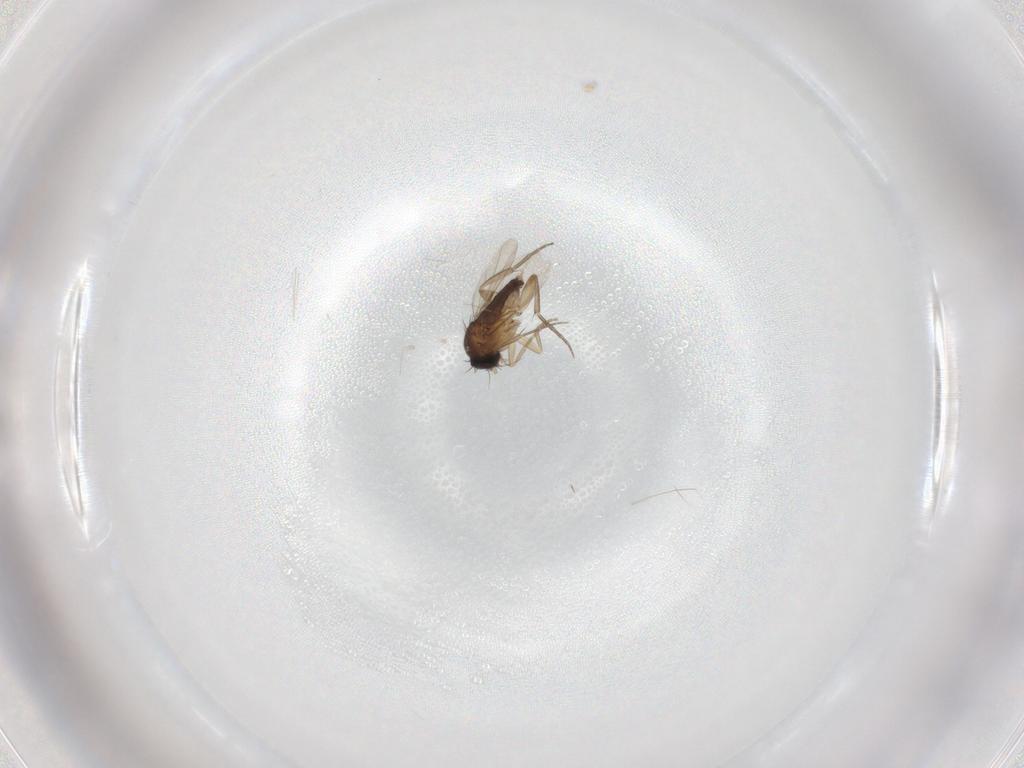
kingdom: Animalia
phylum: Arthropoda
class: Insecta
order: Diptera
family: Phoridae
